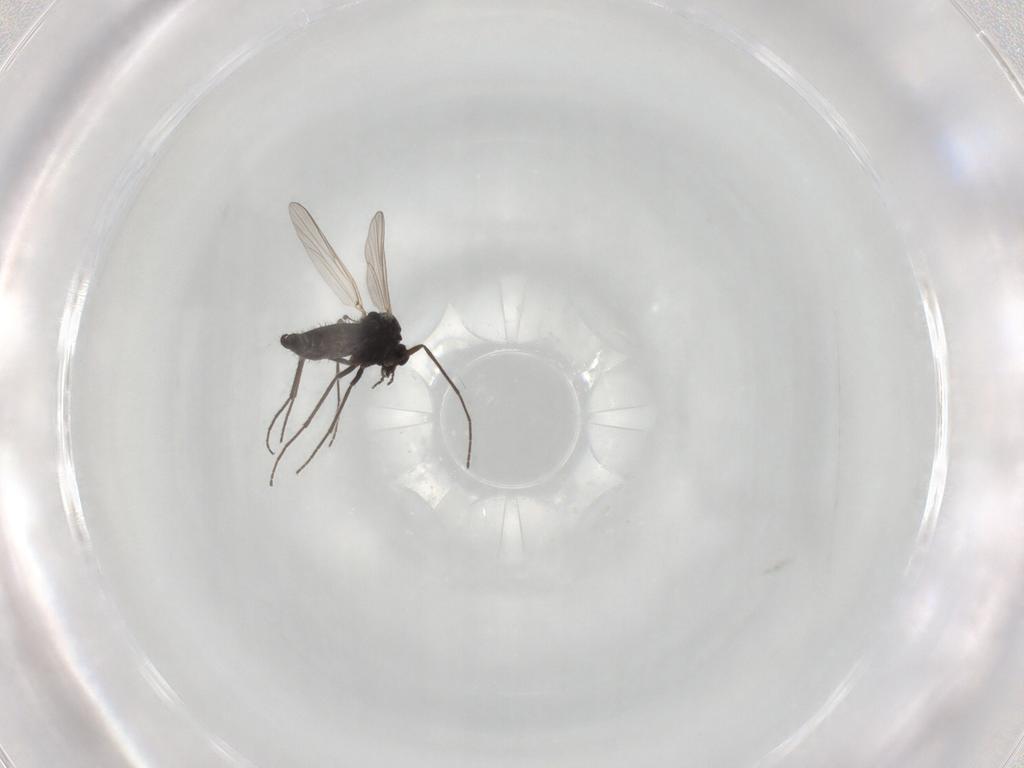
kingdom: Animalia
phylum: Arthropoda
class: Insecta
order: Diptera
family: Chironomidae
